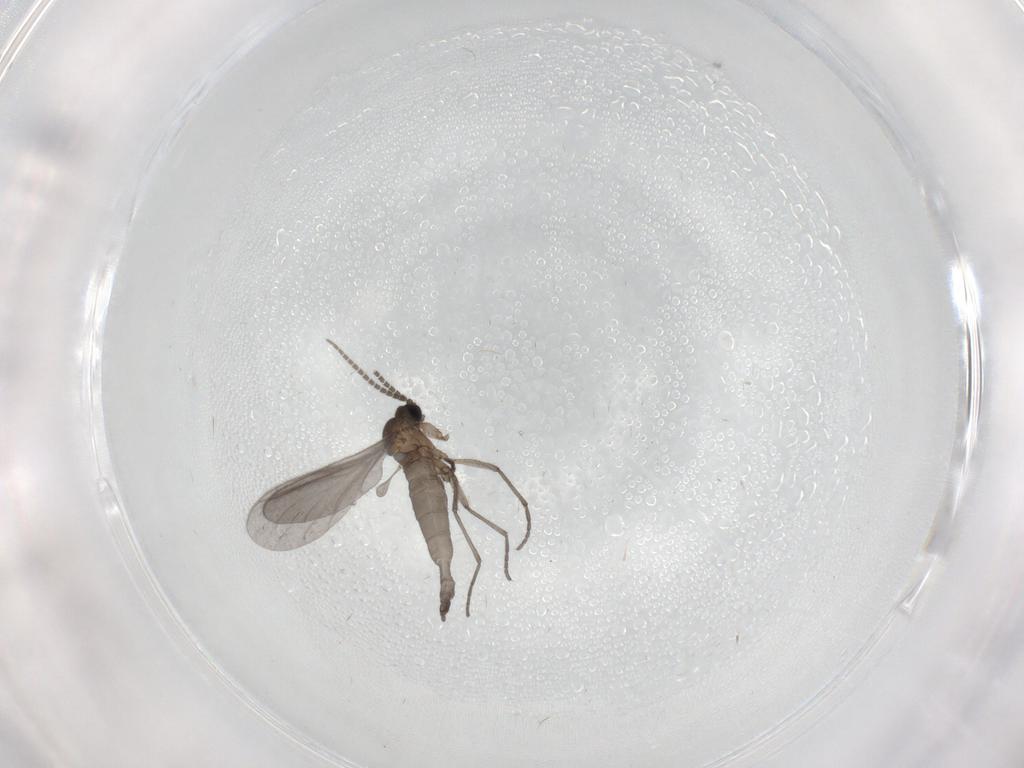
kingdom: Animalia
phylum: Arthropoda
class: Insecta
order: Diptera
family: Sciaridae
